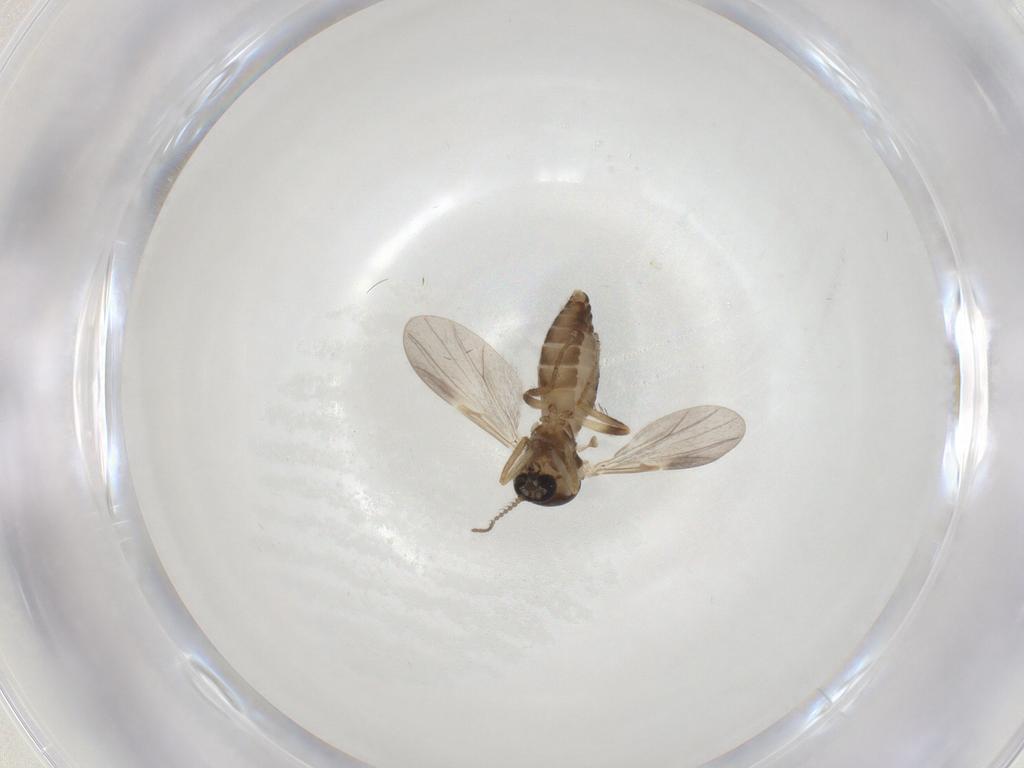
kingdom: Animalia
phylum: Arthropoda
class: Insecta
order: Diptera
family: Ceratopogonidae
